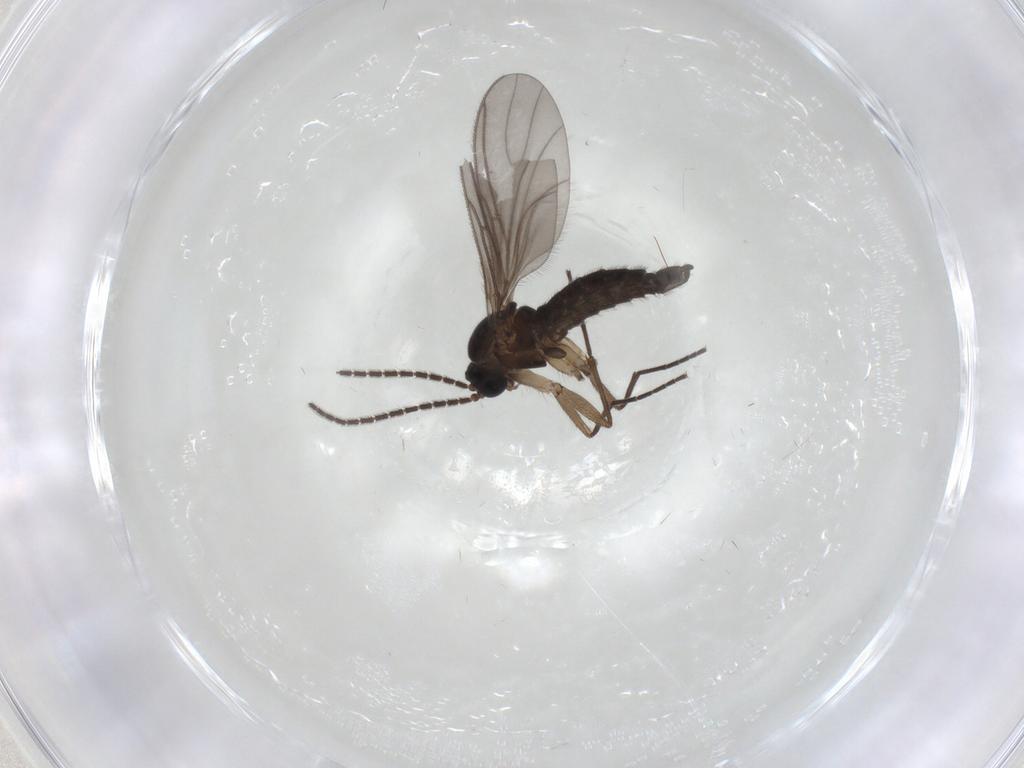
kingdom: Animalia
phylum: Arthropoda
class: Insecta
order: Diptera
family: Sciaridae
